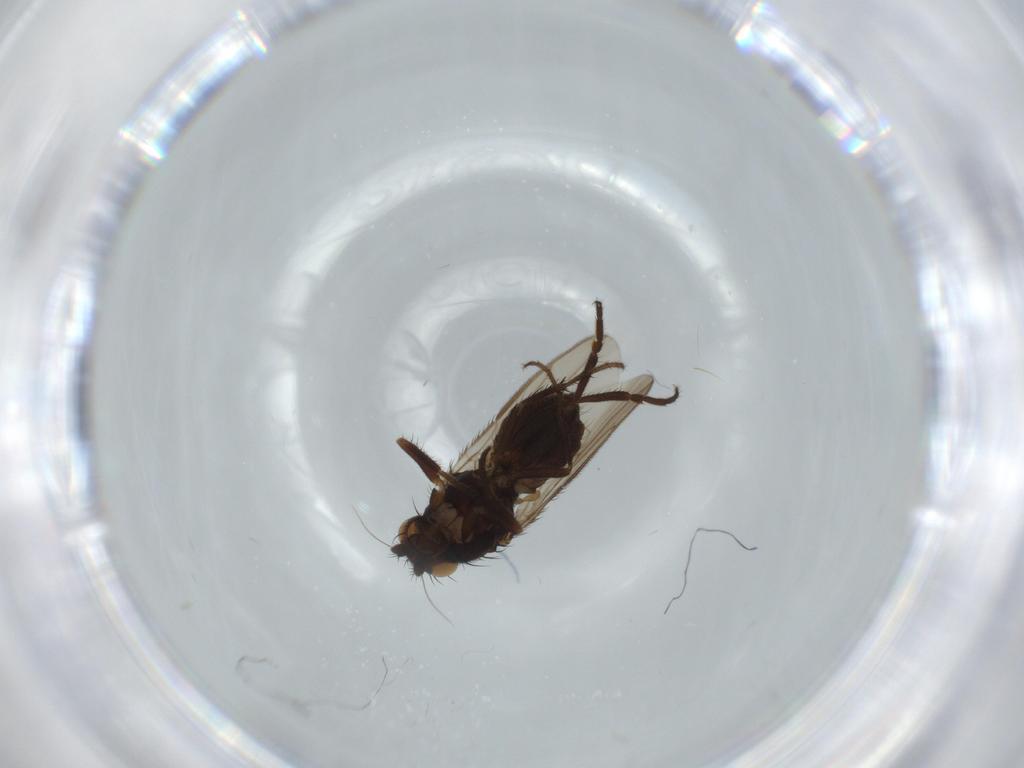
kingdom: Animalia
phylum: Arthropoda
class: Insecta
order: Diptera
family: Sphaeroceridae
